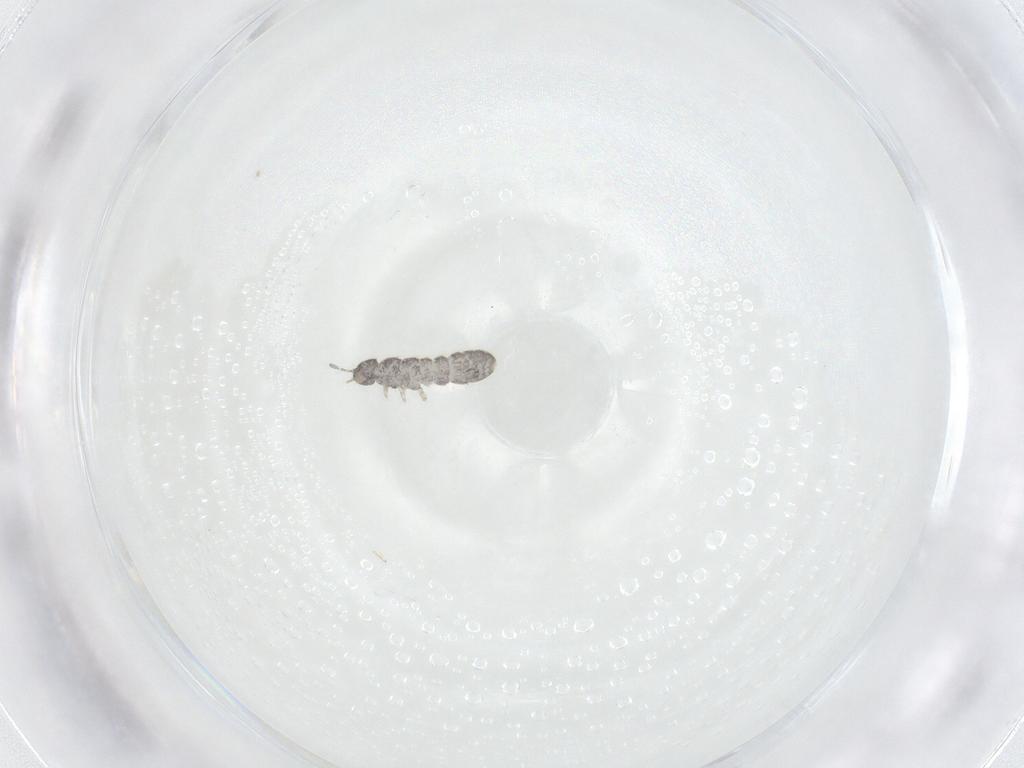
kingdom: Animalia
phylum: Arthropoda
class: Collembola
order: Entomobryomorpha
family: Isotomidae
